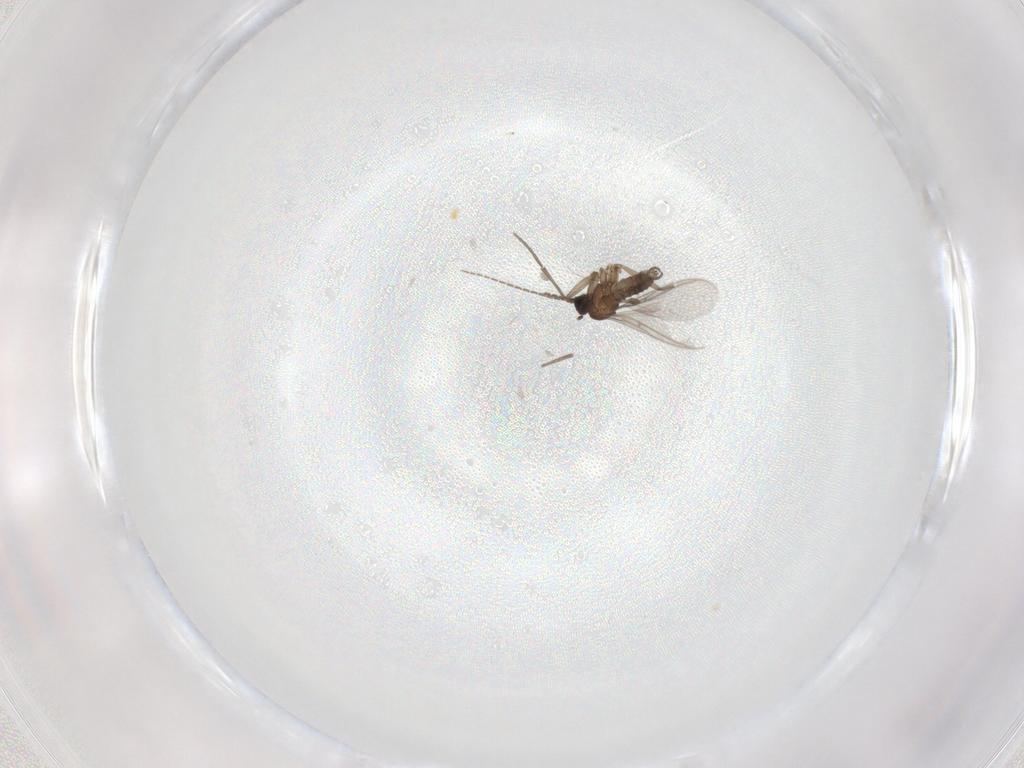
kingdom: Animalia
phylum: Arthropoda
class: Insecta
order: Diptera
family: Sciaridae
